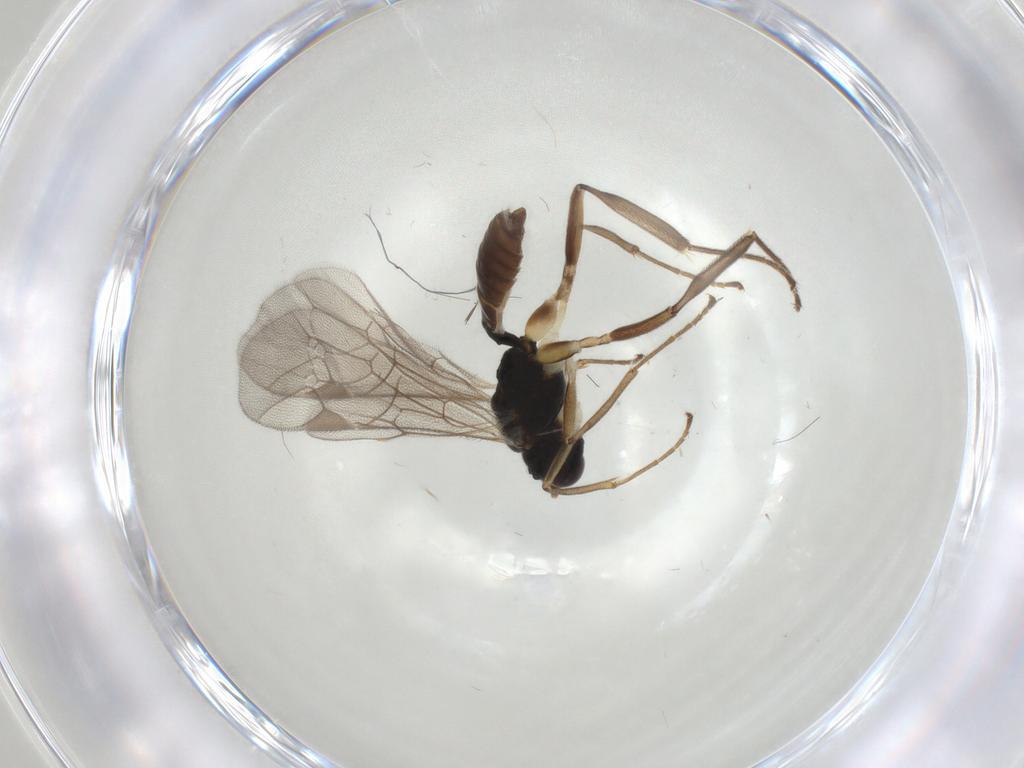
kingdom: Animalia
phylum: Arthropoda
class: Insecta
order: Hymenoptera
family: Ichneumonidae
